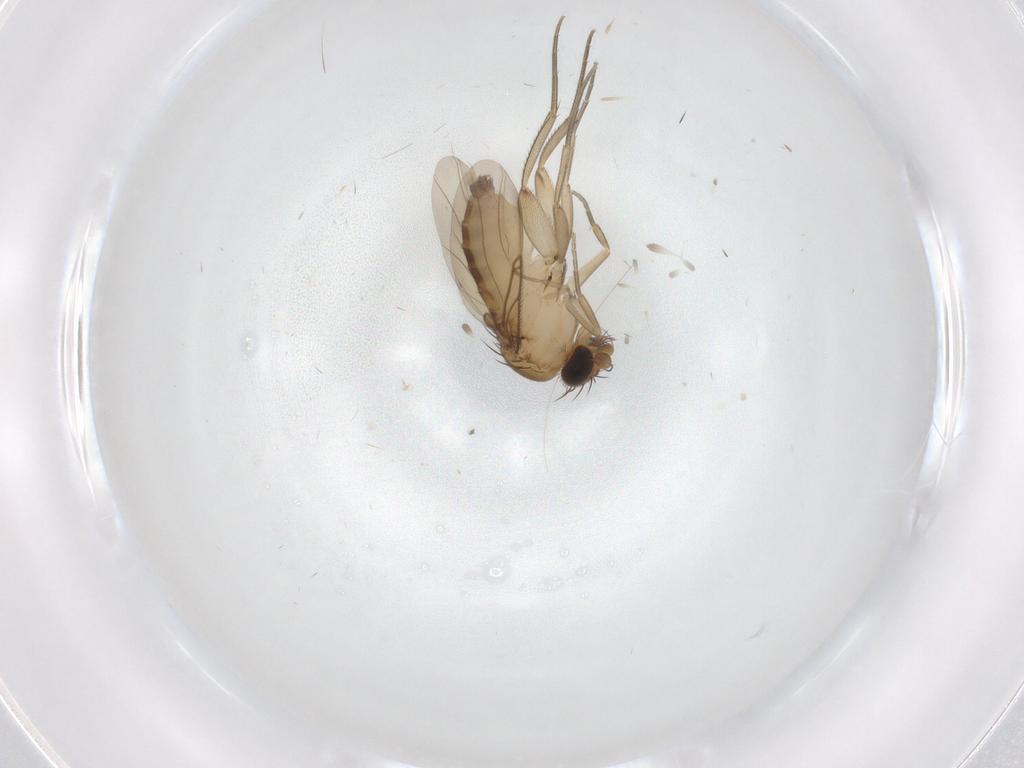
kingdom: Animalia
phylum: Arthropoda
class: Insecta
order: Diptera
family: Phoridae
